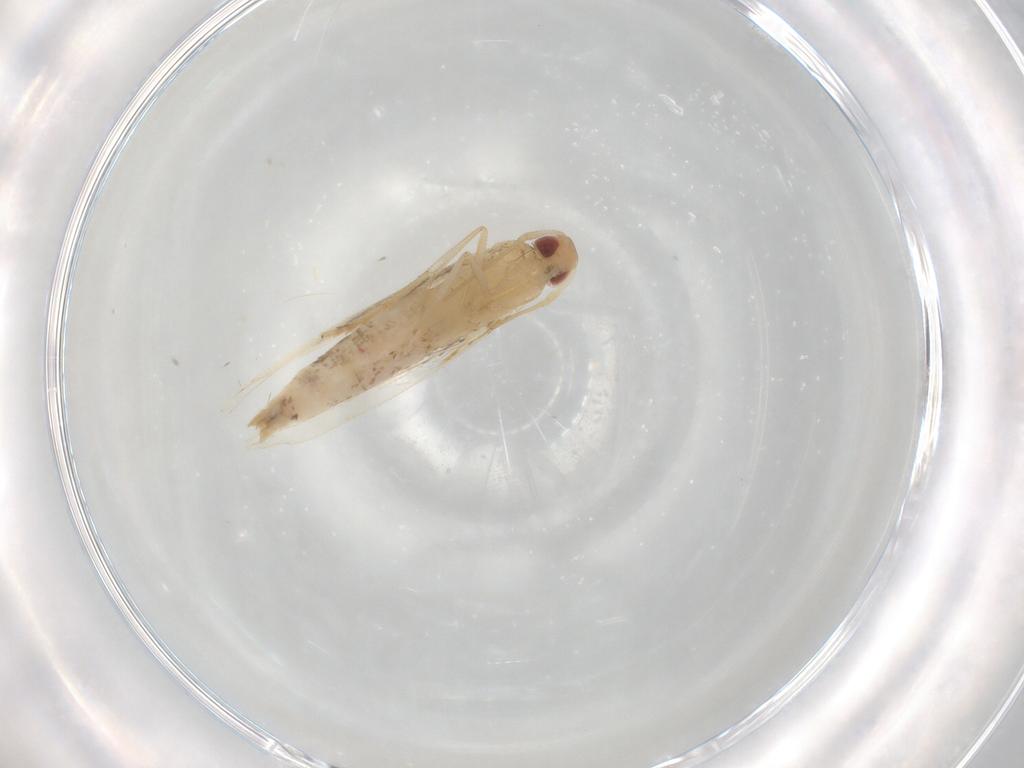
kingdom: Animalia
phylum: Arthropoda
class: Insecta
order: Lepidoptera
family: Cosmopterigidae
